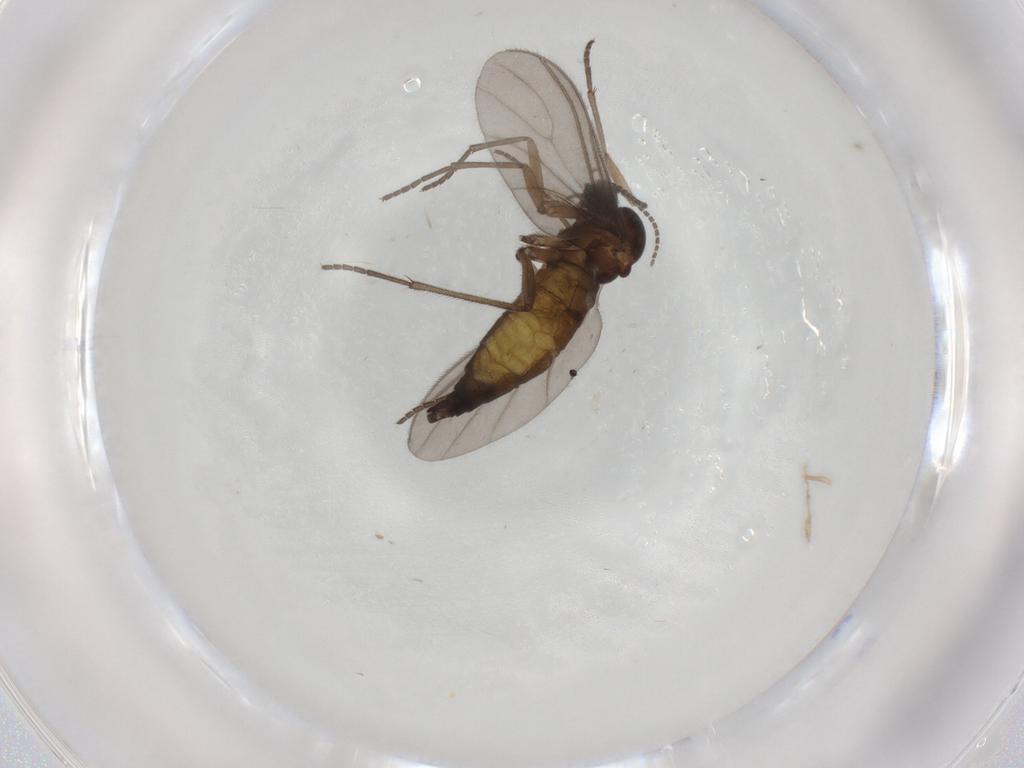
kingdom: Animalia
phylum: Arthropoda
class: Insecta
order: Diptera
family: Sciaridae
